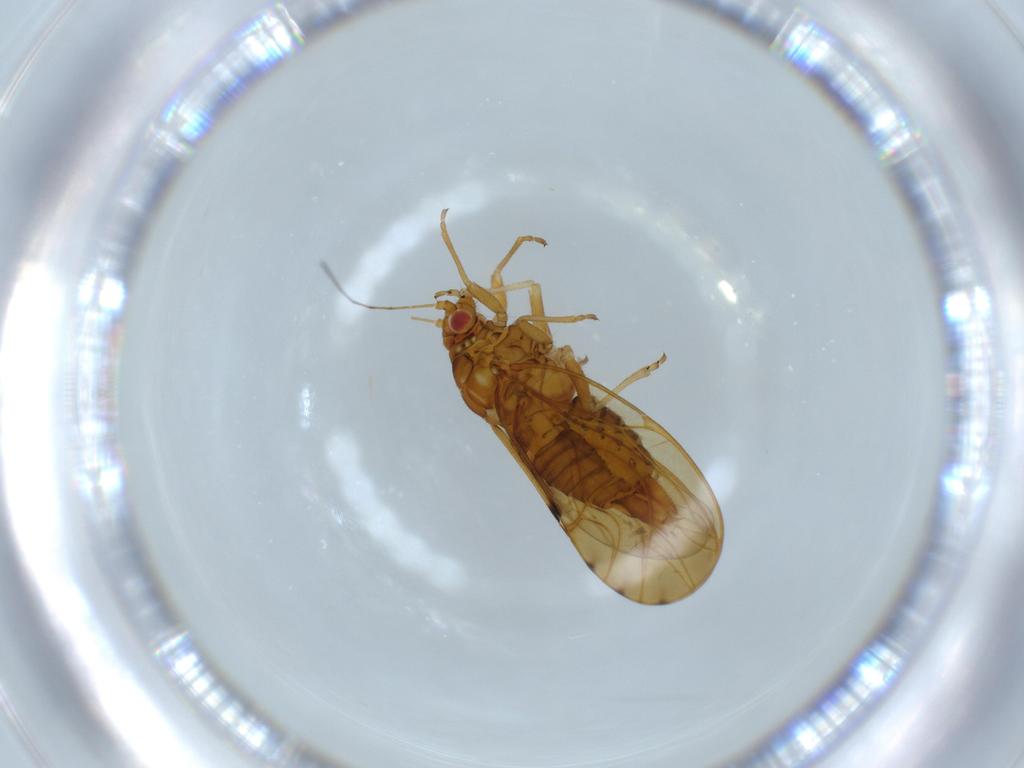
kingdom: Animalia
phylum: Arthropoda
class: Insecta
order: Hemiptera
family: Psylloidea_incertae_sedis
